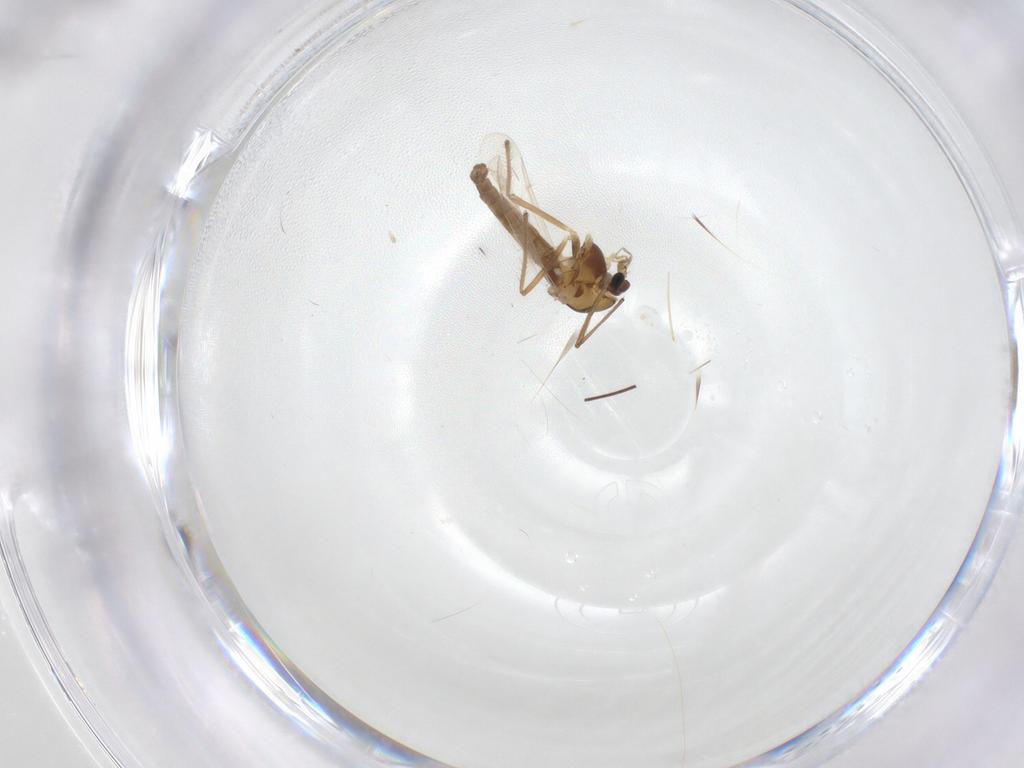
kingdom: Animalia
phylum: Arthropoda
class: Insecta
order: Diptera
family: Chironomidae
